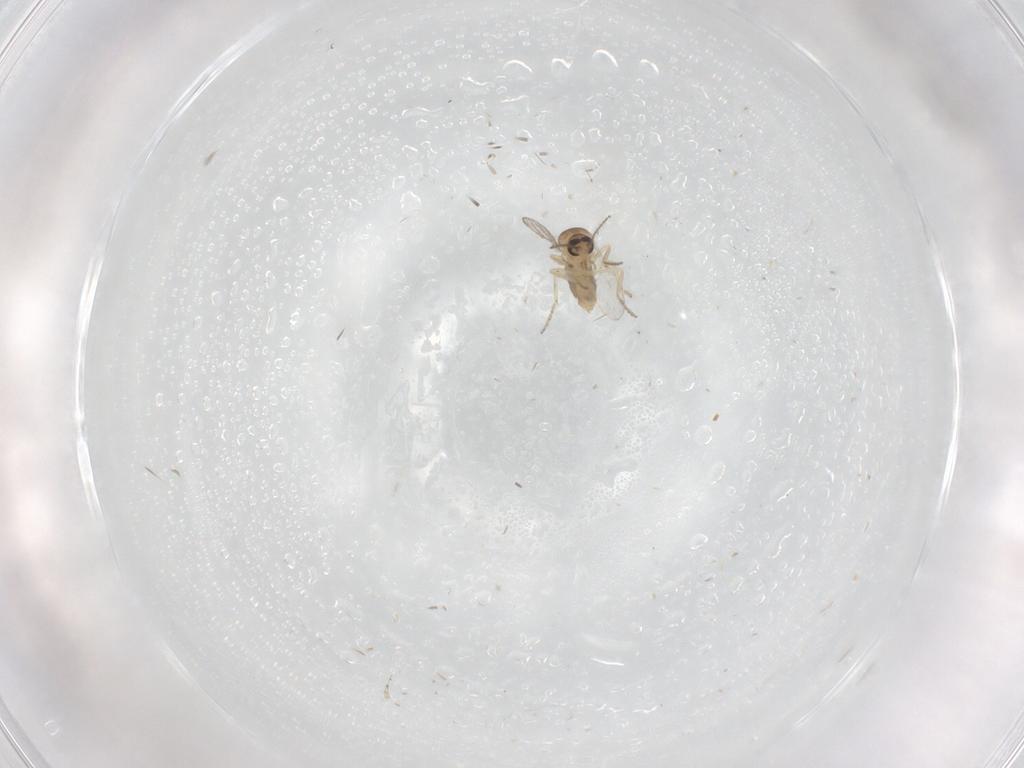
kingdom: Animalia
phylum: Arthropoda
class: Insecta
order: Diptera
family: Ceratopogonidae
